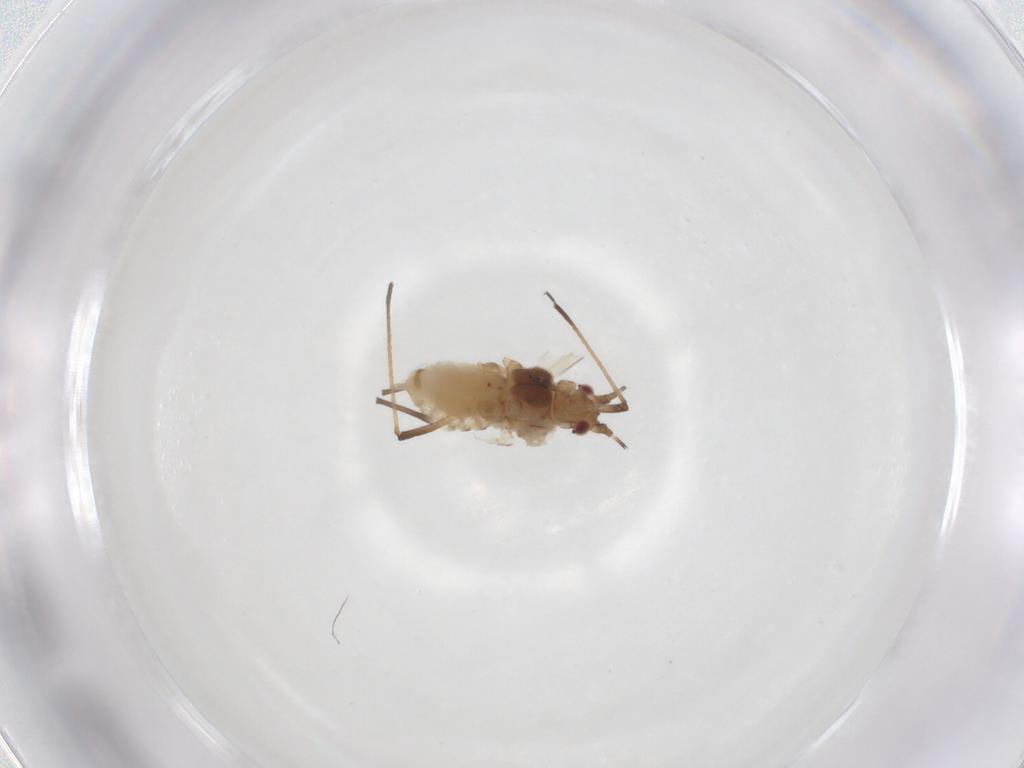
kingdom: Animalia
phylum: Arthropoda
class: Insecta
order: Hemiptera
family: Aphididae
